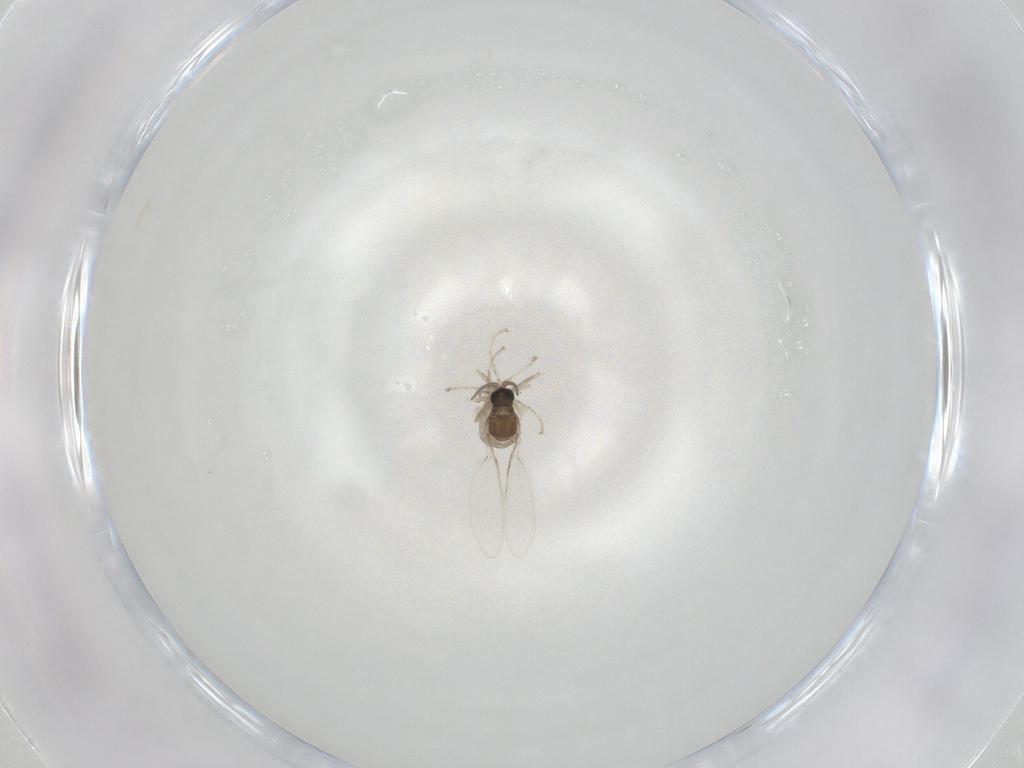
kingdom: Animalia
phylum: Arthropoda
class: Insecta
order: Diptera
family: Cecidomyiidae
